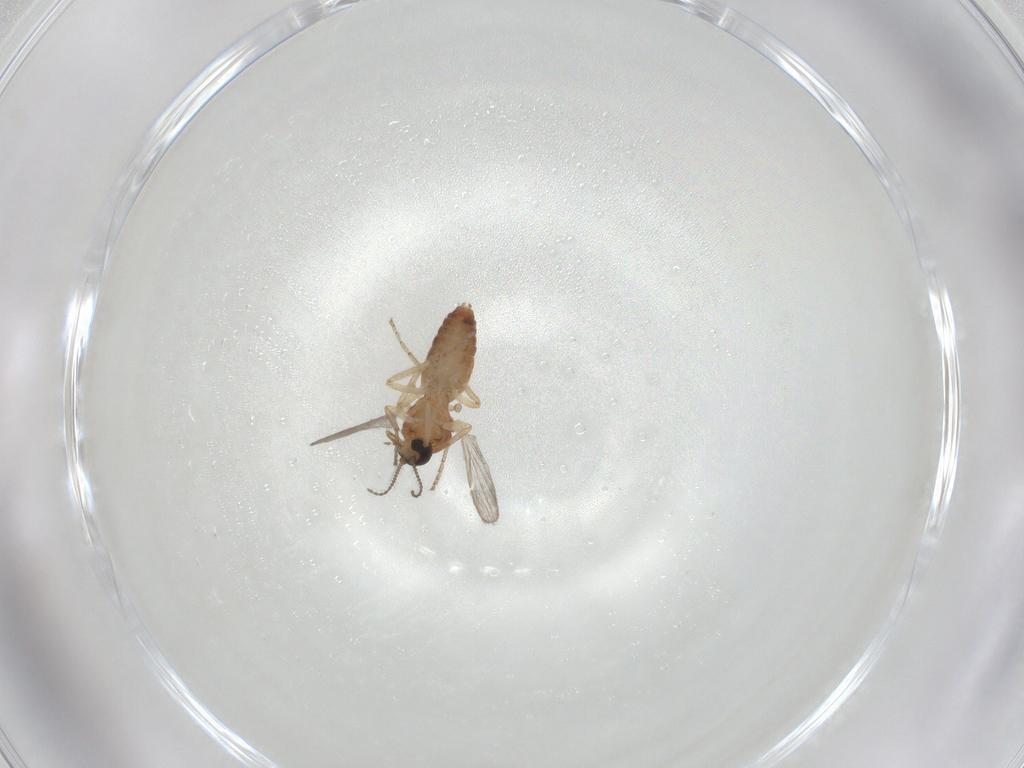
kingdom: Animalia
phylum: Arthropoda
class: Insecta
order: Diptera
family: Ceratopogonidae
